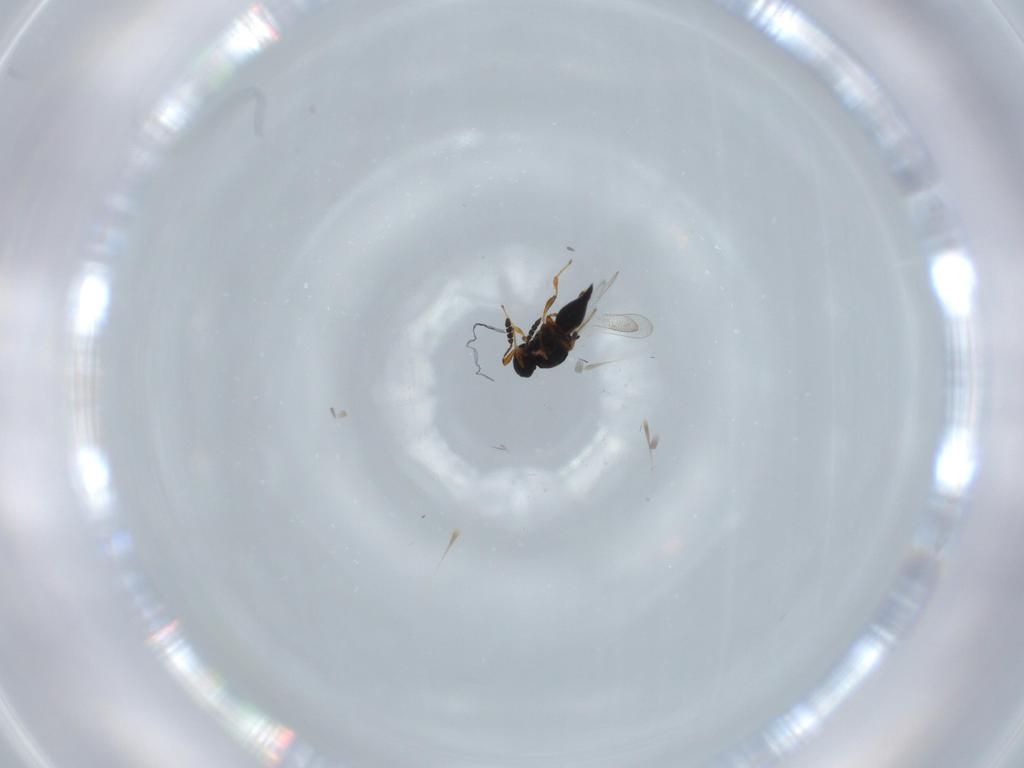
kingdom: Animalia
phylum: Arthropoda
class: Insecta
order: Hymenoptera
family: Platygastridae
